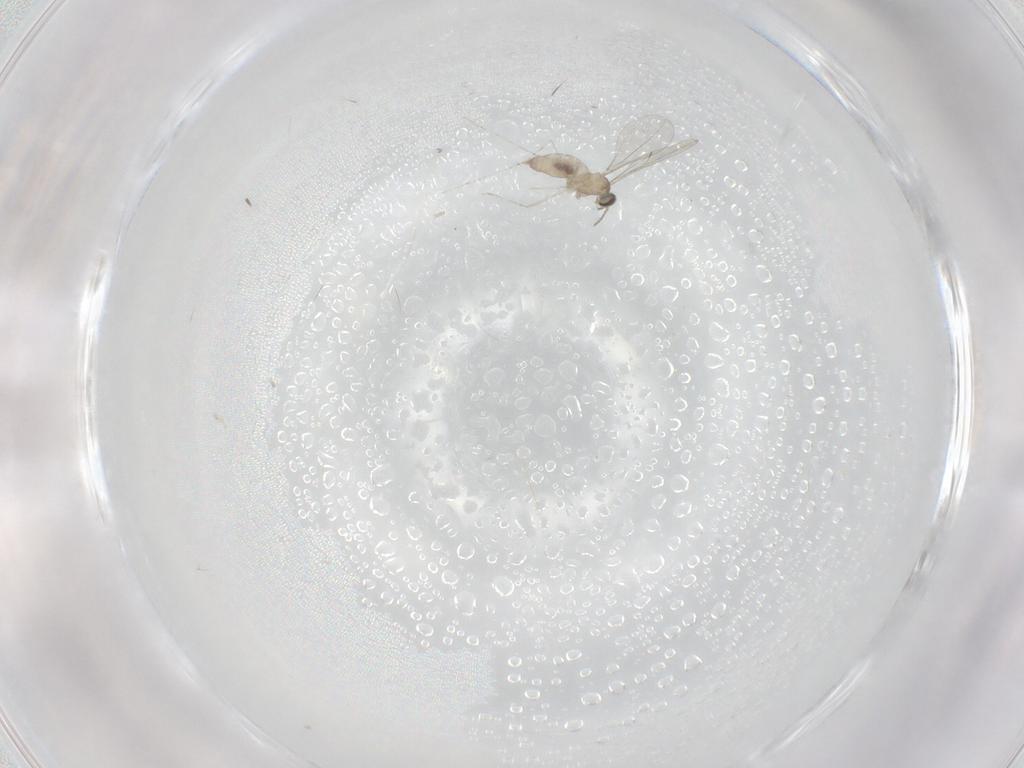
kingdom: Animalia
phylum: Arthropoda
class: Insecta
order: Diptera
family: Cecidomyiidae
